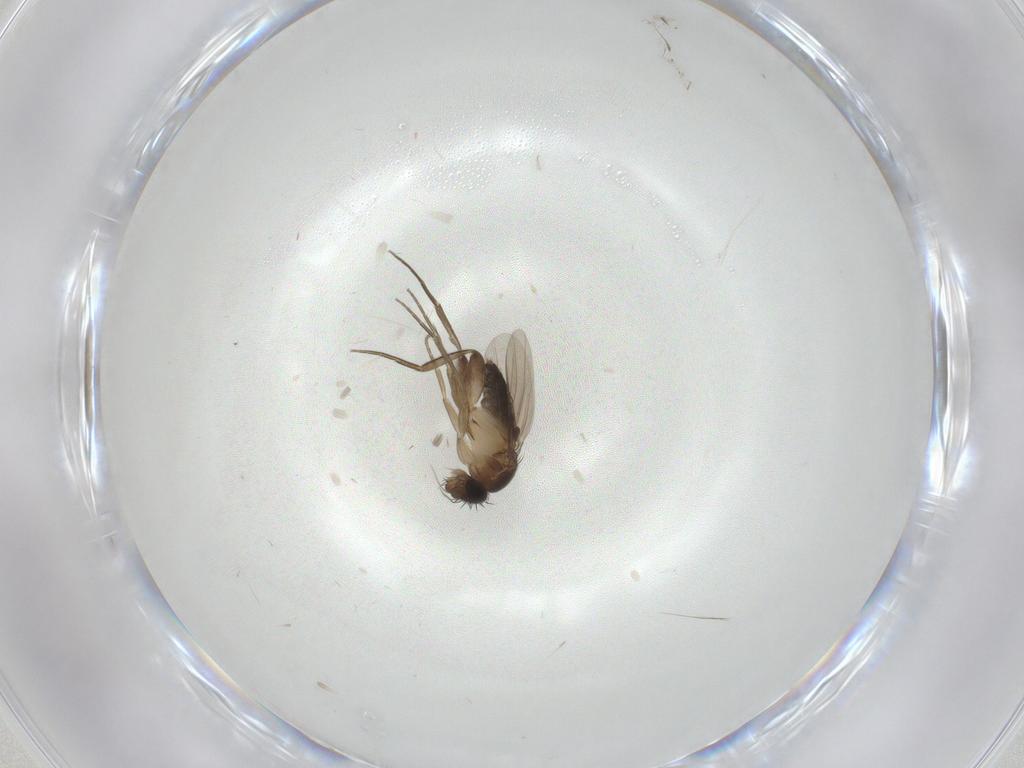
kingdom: Animalia
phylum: Arthropoda
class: Insecta
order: Diptera
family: Phoridae
